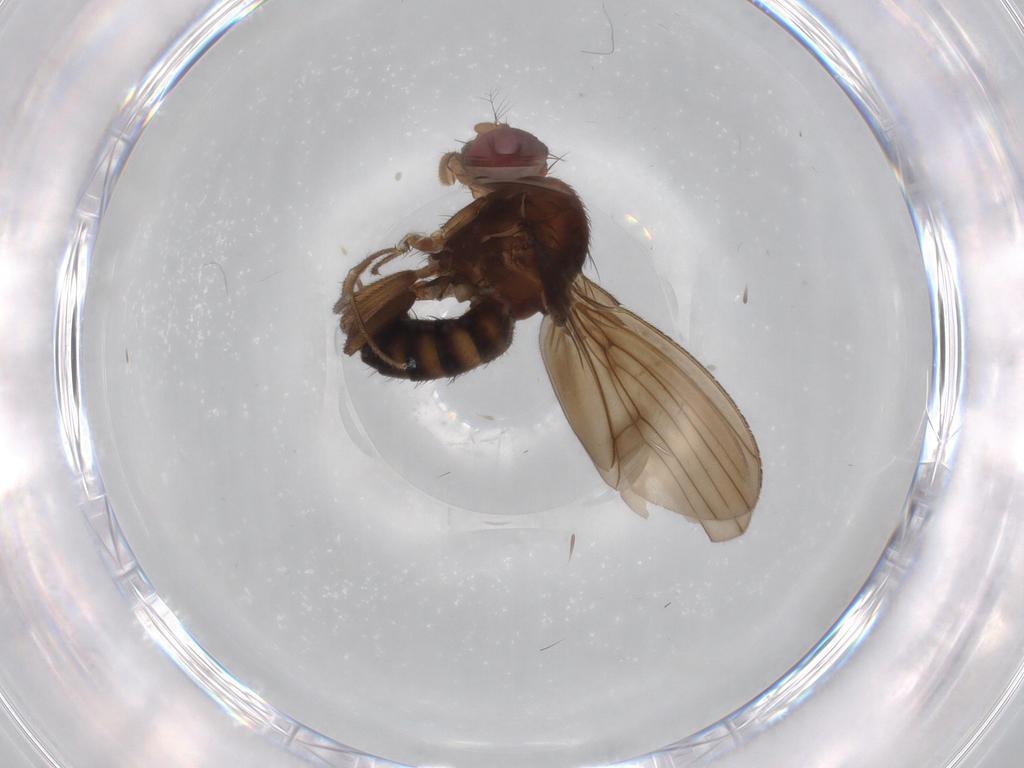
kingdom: Animalia
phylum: Arthropoda
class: Insecta
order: Diptera
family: Drosophilidae
